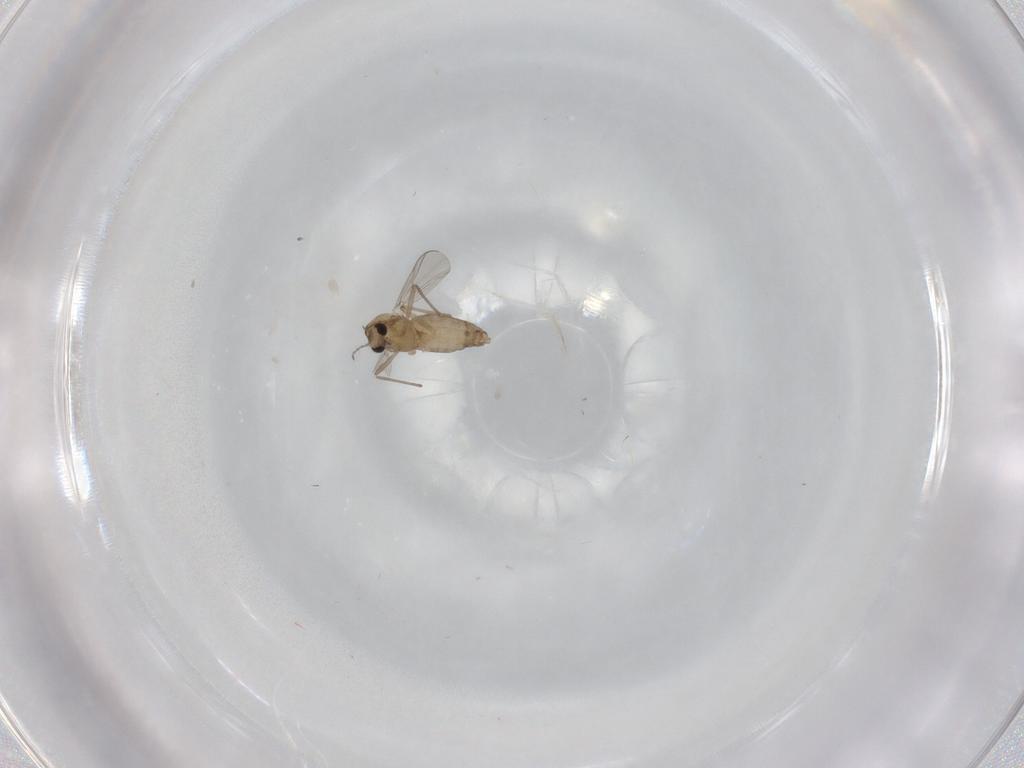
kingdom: Animalia
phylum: Arthropoda
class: Insecta
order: Diptera
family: Chironomidae
